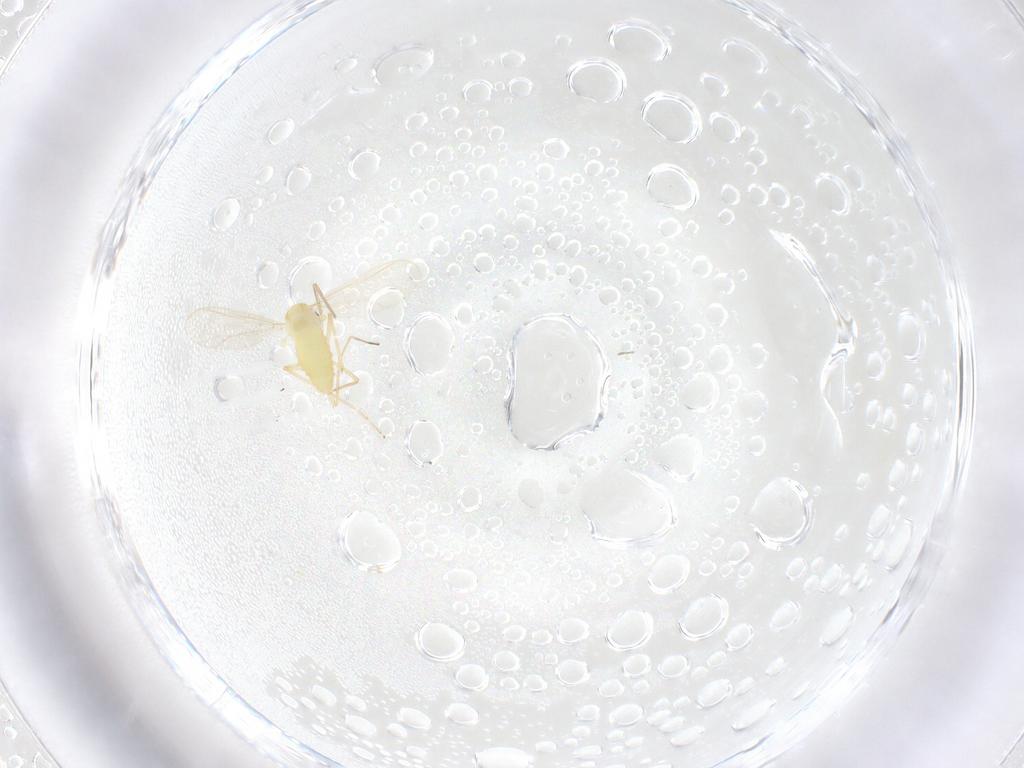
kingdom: Animalia
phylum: Arthropoda
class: Insecta
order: Diptera
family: Chironomidae
